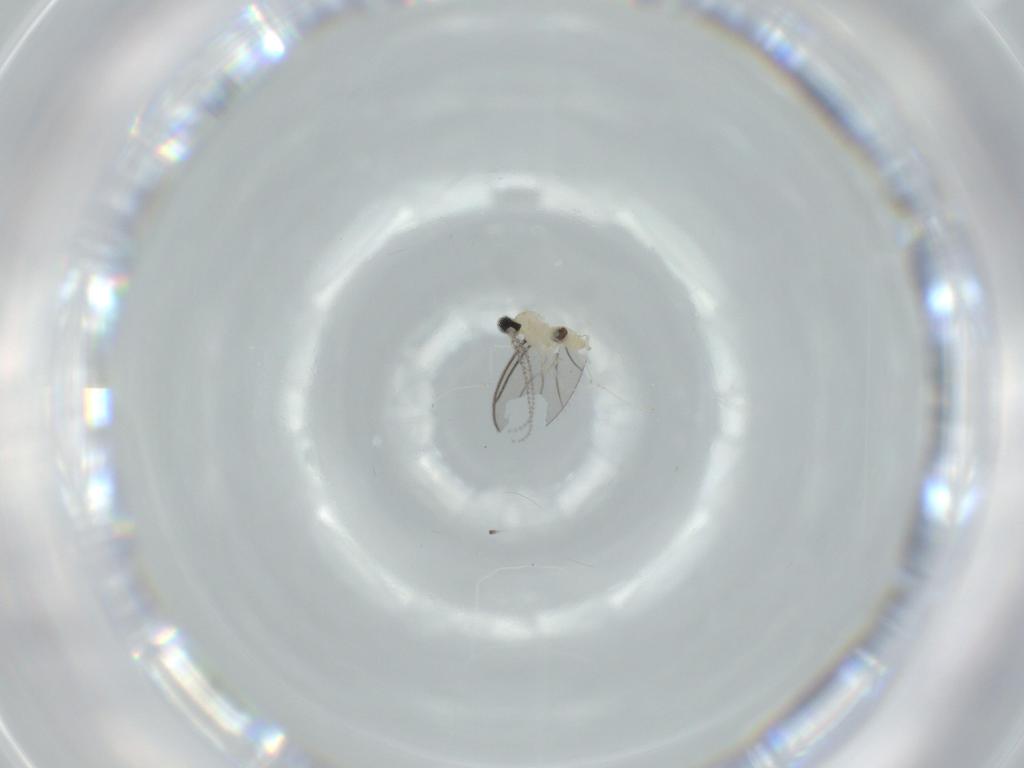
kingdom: Animalia
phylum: Arthropoda
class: Insecta
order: Diptera
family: Cecidomyiidae
